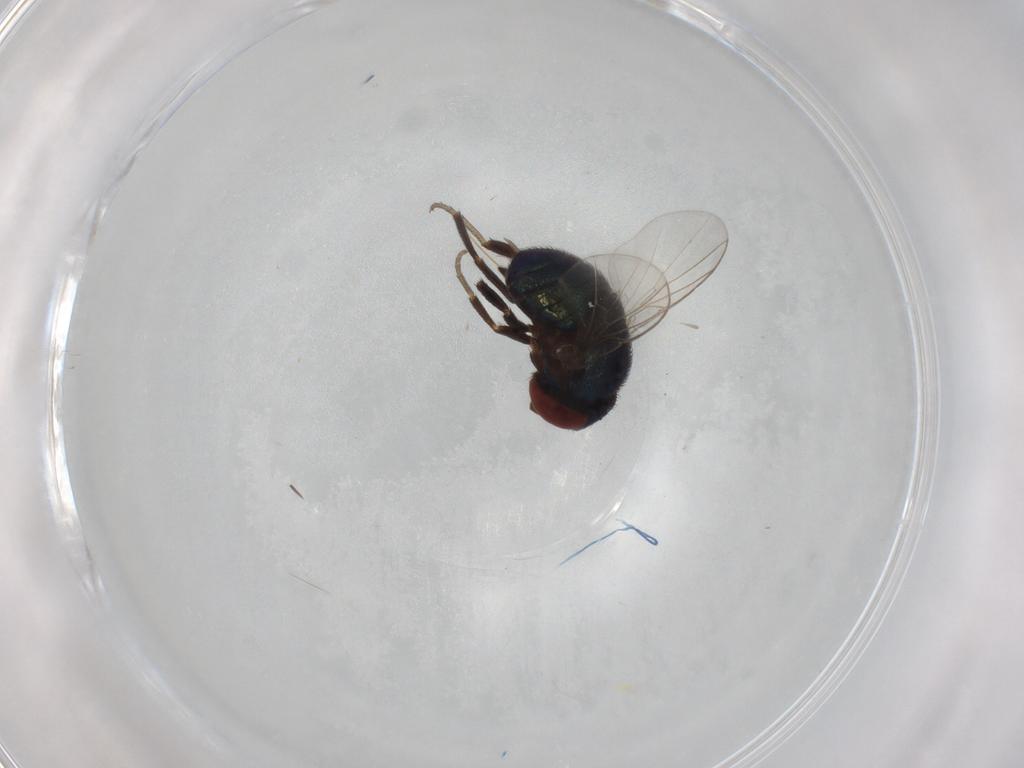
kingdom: Animalia
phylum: Arthropoda
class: Insecta
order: Diptera
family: Cryptochetidae
